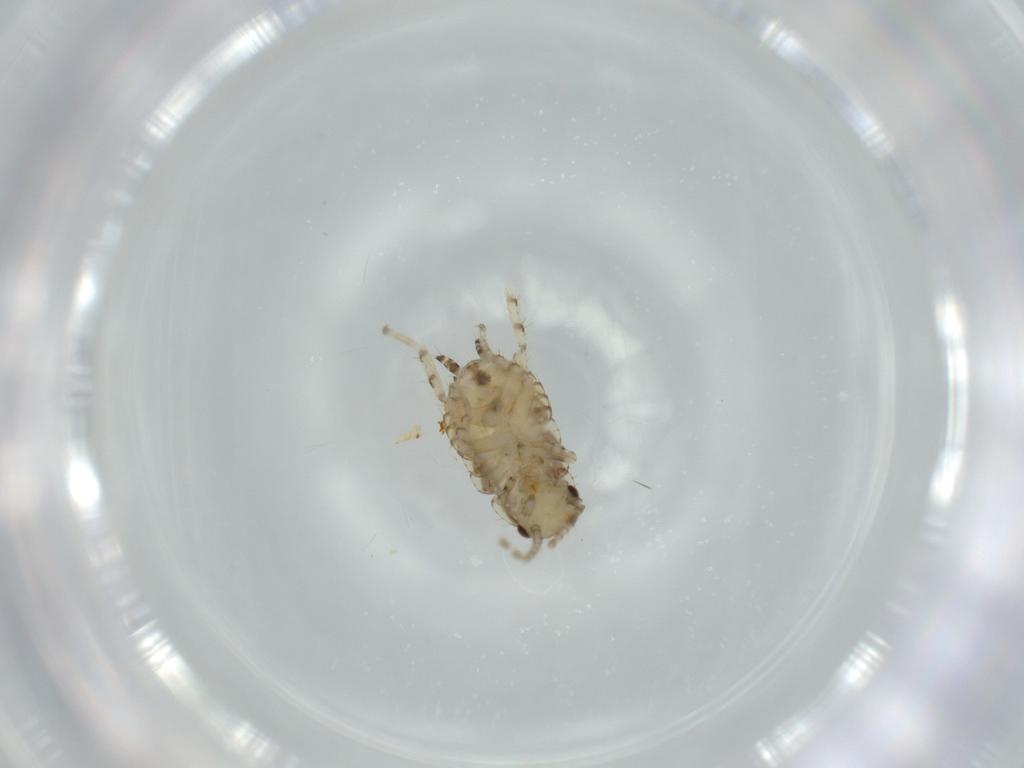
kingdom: Animalia
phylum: Arthropoda
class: Insecta
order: Blattodea
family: Ectobiidae
